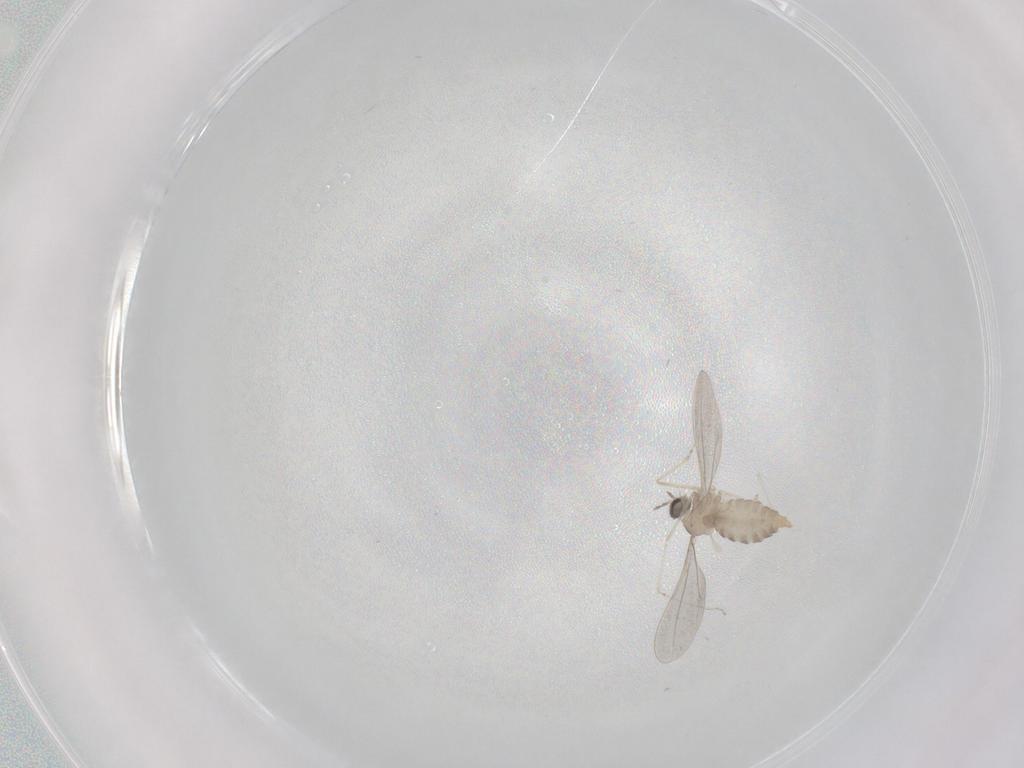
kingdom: Animalia
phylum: Arthropoda
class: Insecta
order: Diptera
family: Cecidomyiidae
